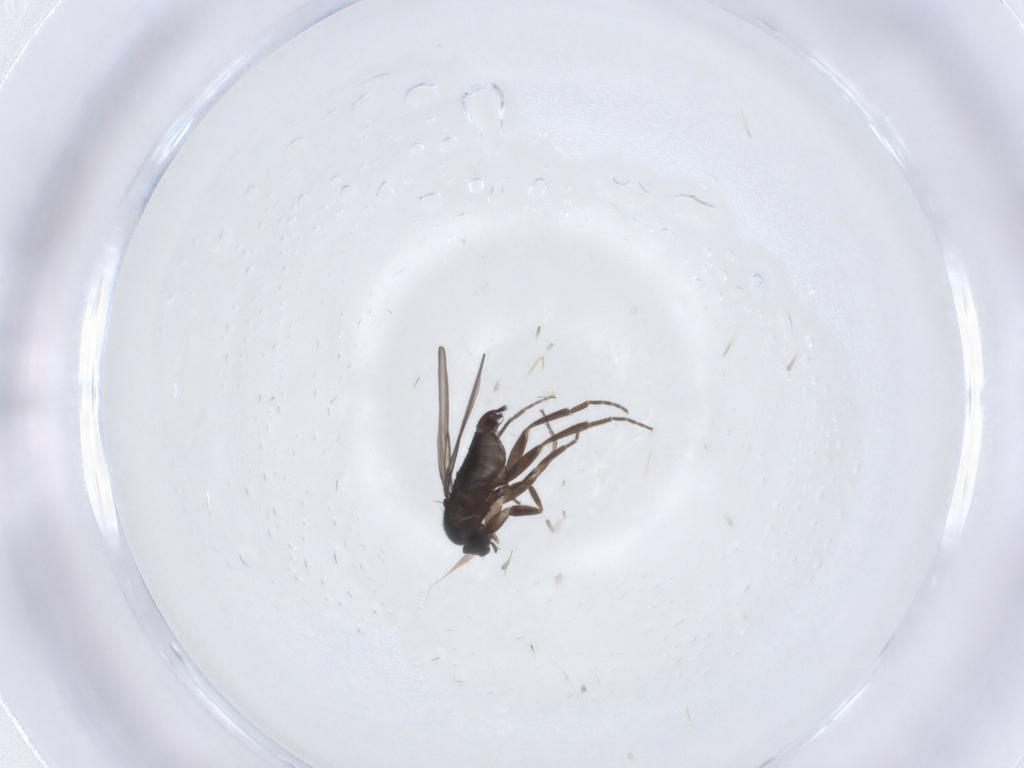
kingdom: Animalia
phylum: Arthropoda
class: Insecta
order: Diptera
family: Phoridae
